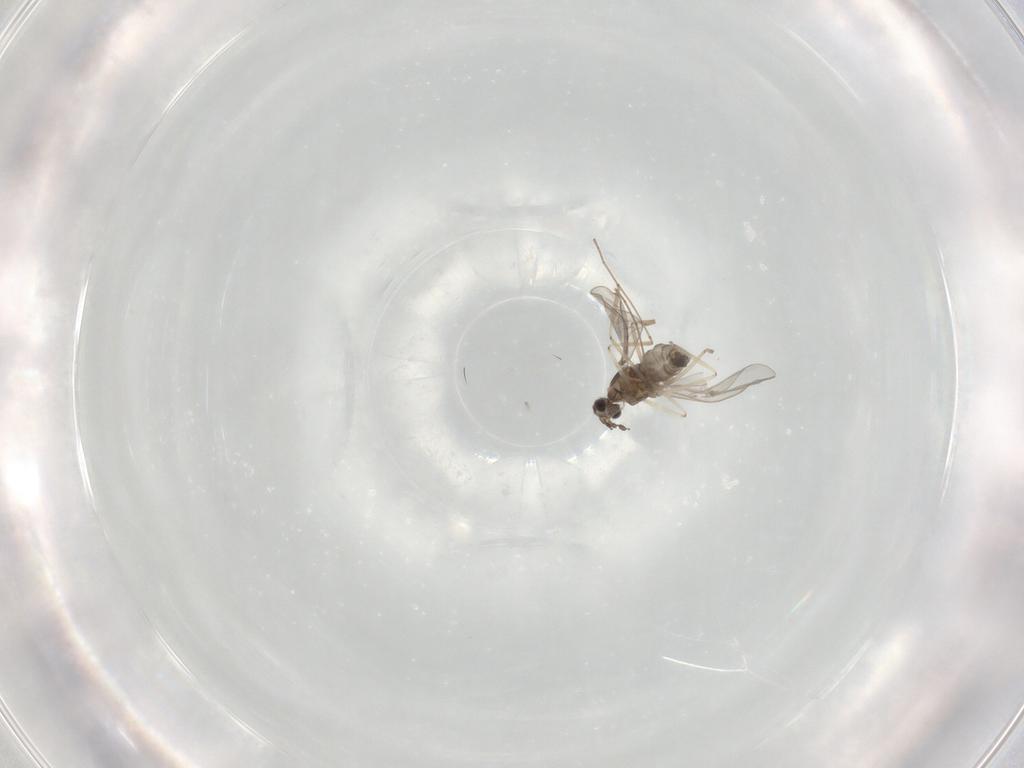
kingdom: Animalia
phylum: Arthropoda
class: Insecta
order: Diptera
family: Cecidomyiidae
